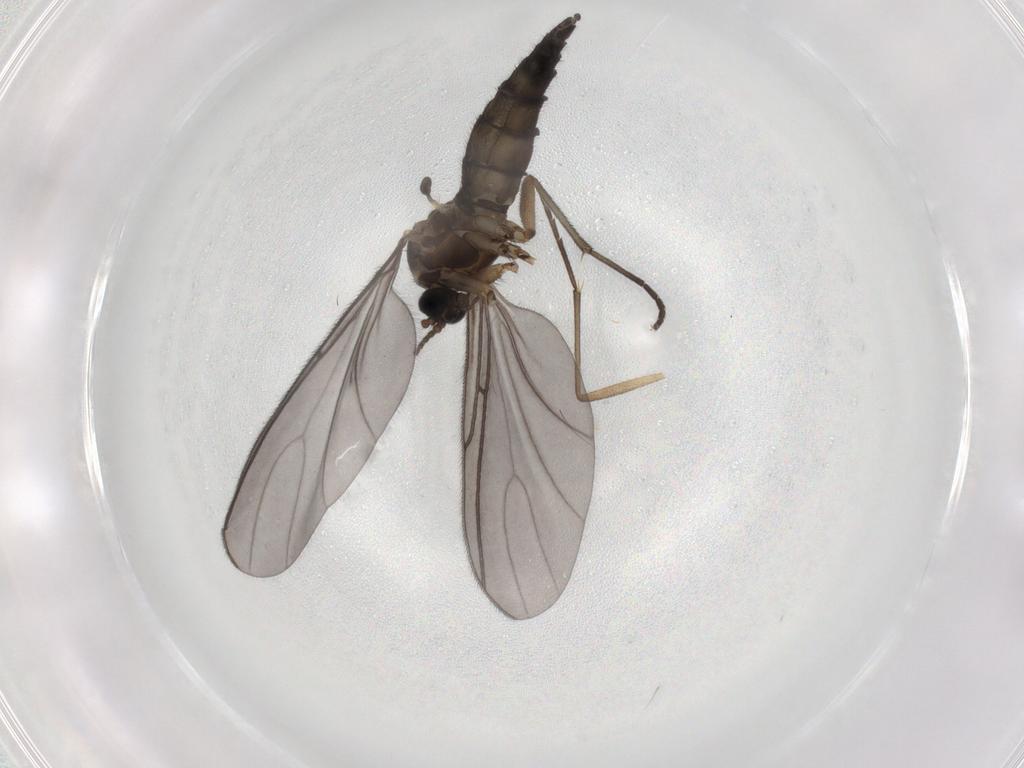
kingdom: Animalia
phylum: Arthropoda
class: Insecta
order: Diptera
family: Sciaridae
